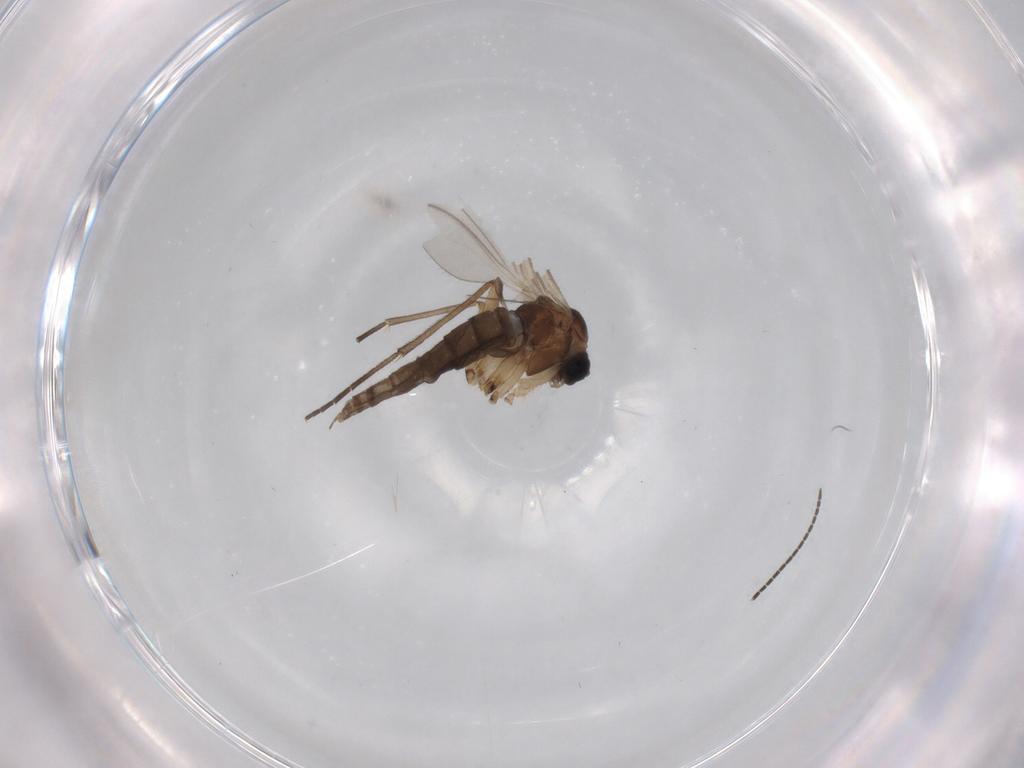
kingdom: Animalia
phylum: Arthropoda
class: Insecta
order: Diptera
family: Sciaridae
